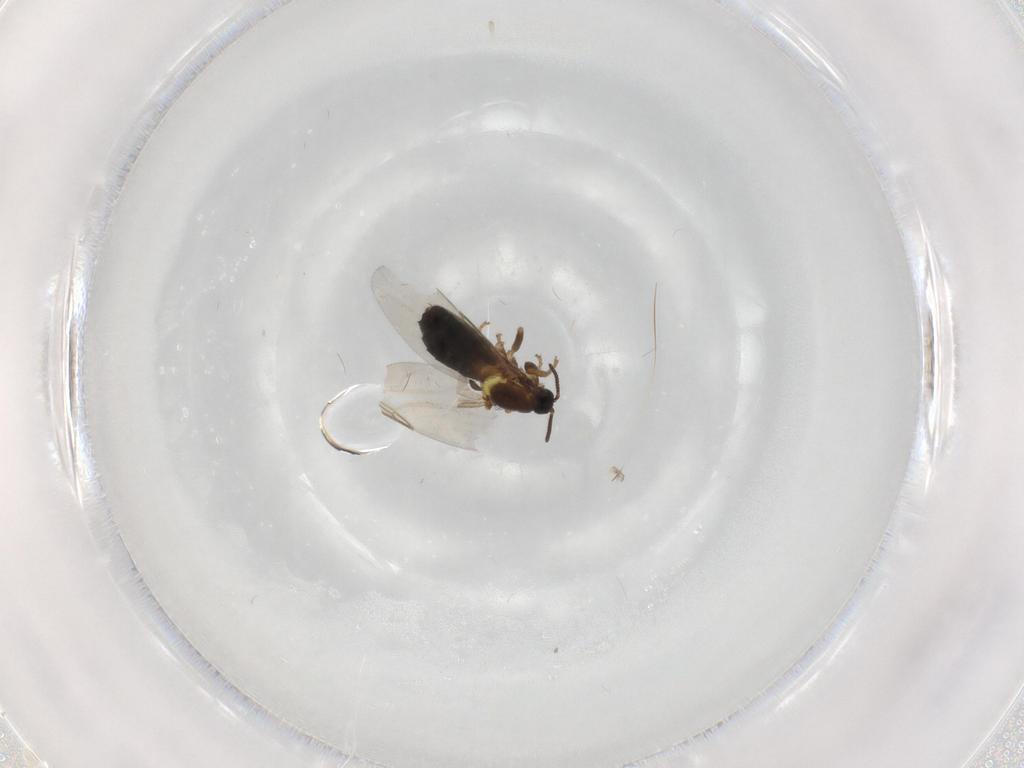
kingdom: Animalia
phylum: Arthropoda
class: Insecta
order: Diptera
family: Scatopsidae
